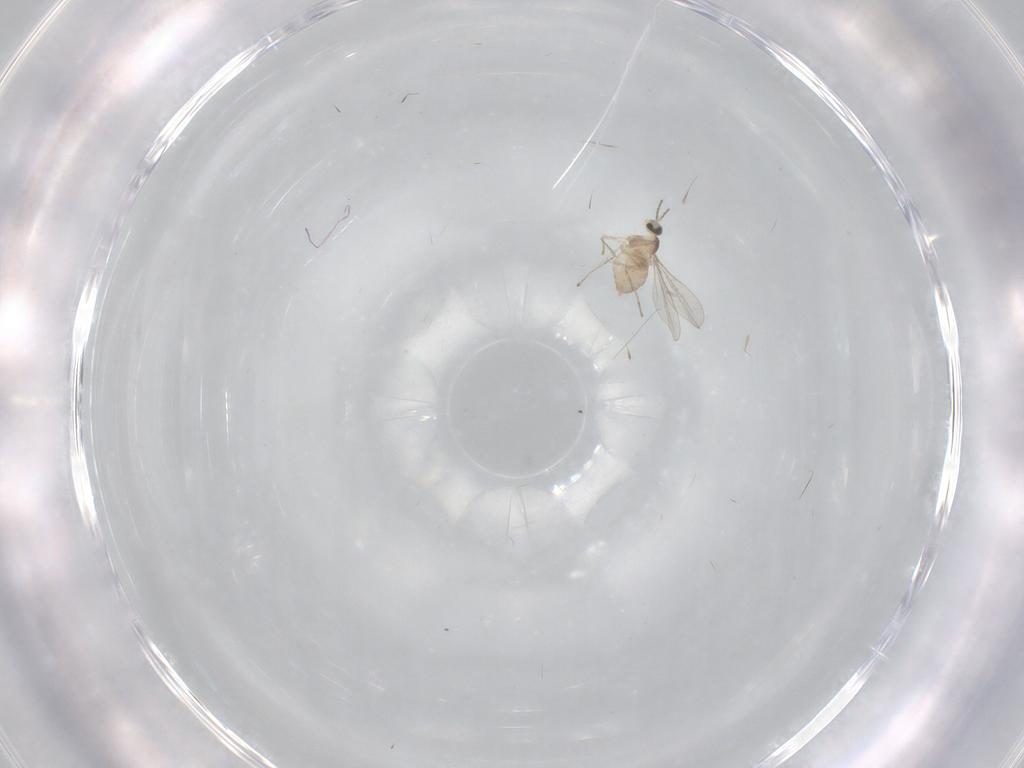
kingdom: Animalia
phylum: Arthropoda
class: Insecta
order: Diptera
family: Cecidomyiidae
